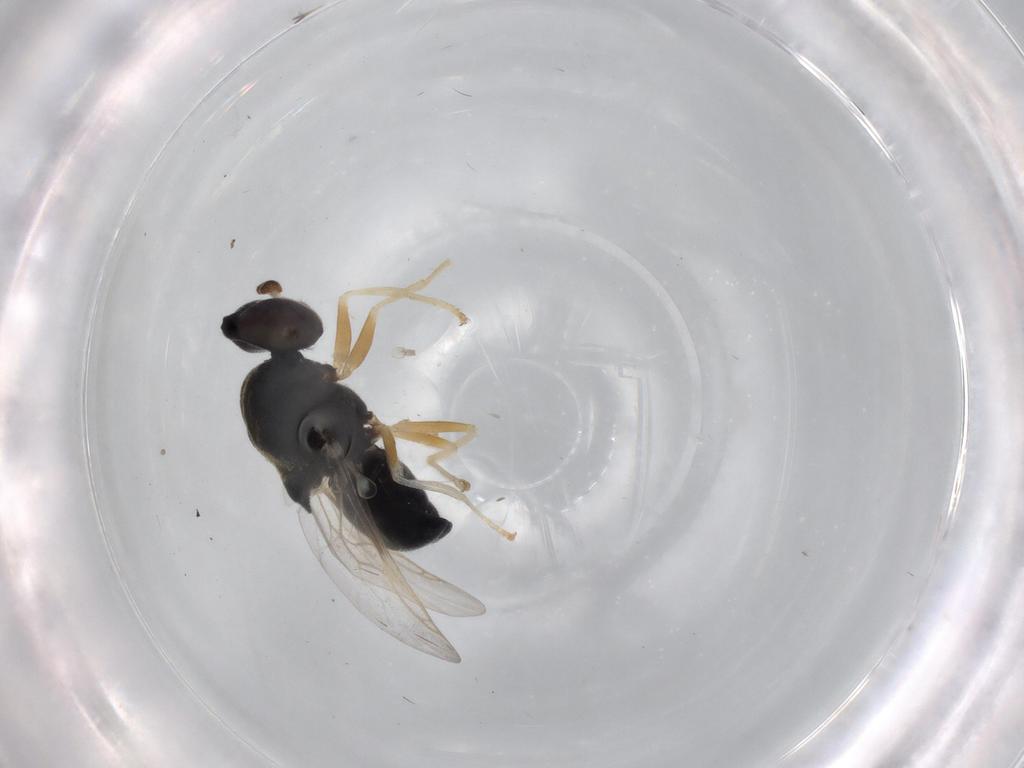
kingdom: Animalia
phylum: Arthropoda
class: Insecta
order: Diptera
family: Stratiomyidae
